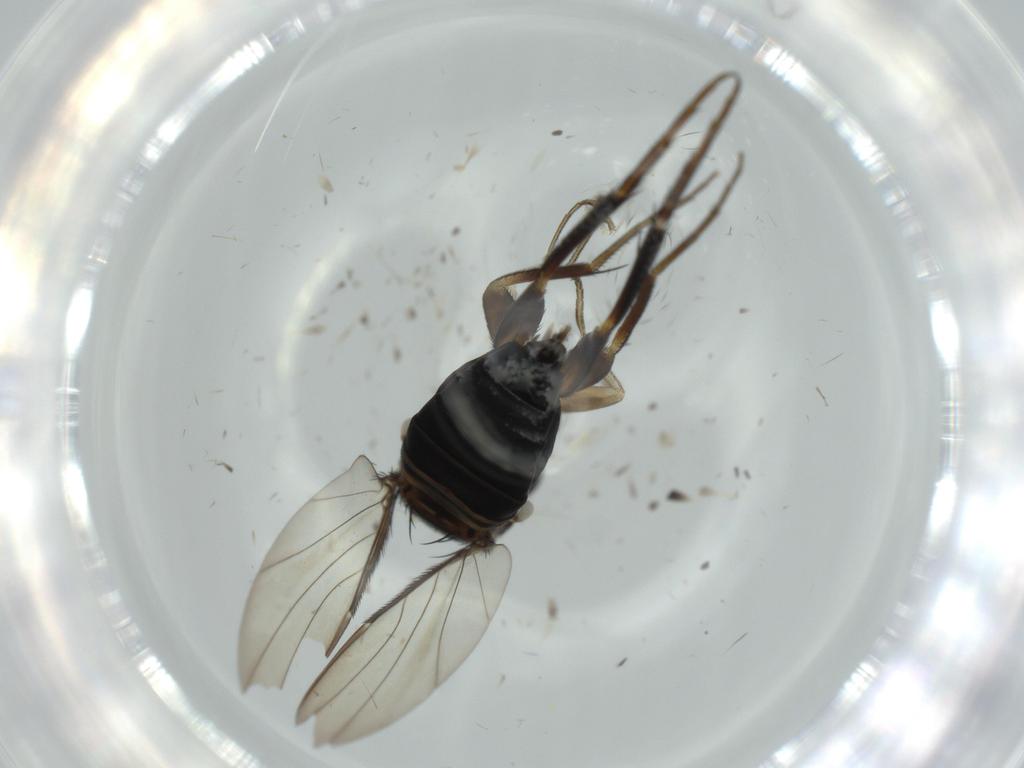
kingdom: Animalia
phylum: Arthropoda
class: Insecta
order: Diptera
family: Phoridae
